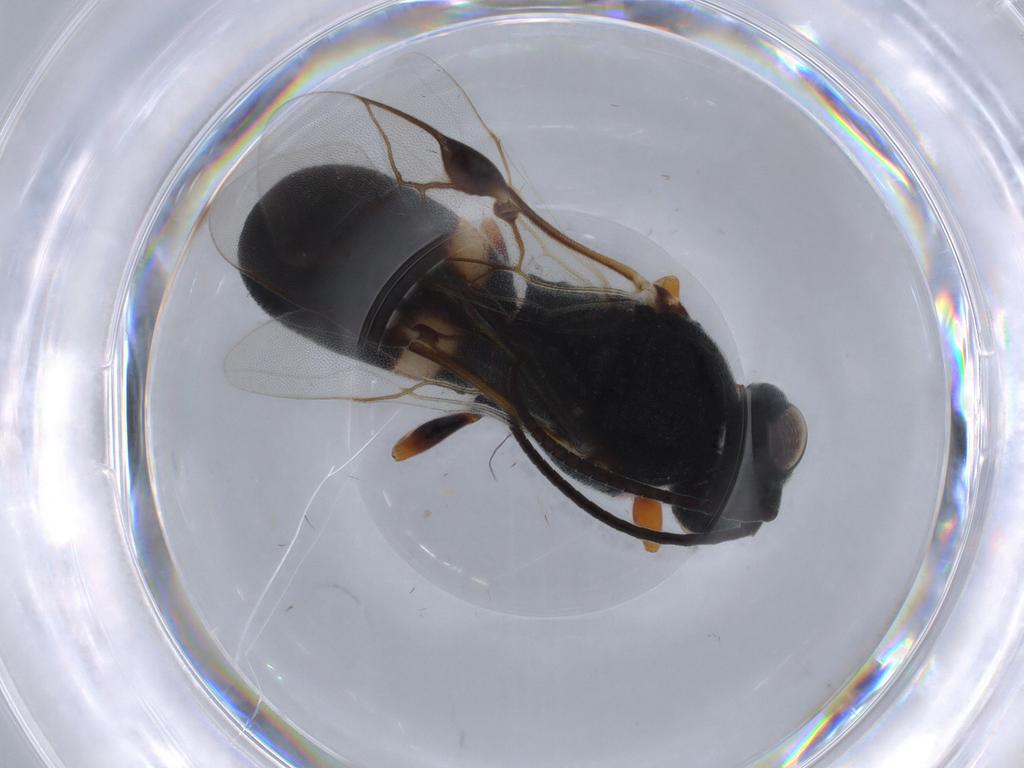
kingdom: Animalia
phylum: Arthropoda
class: Insecta
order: Hymenoptera
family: Braconidae
